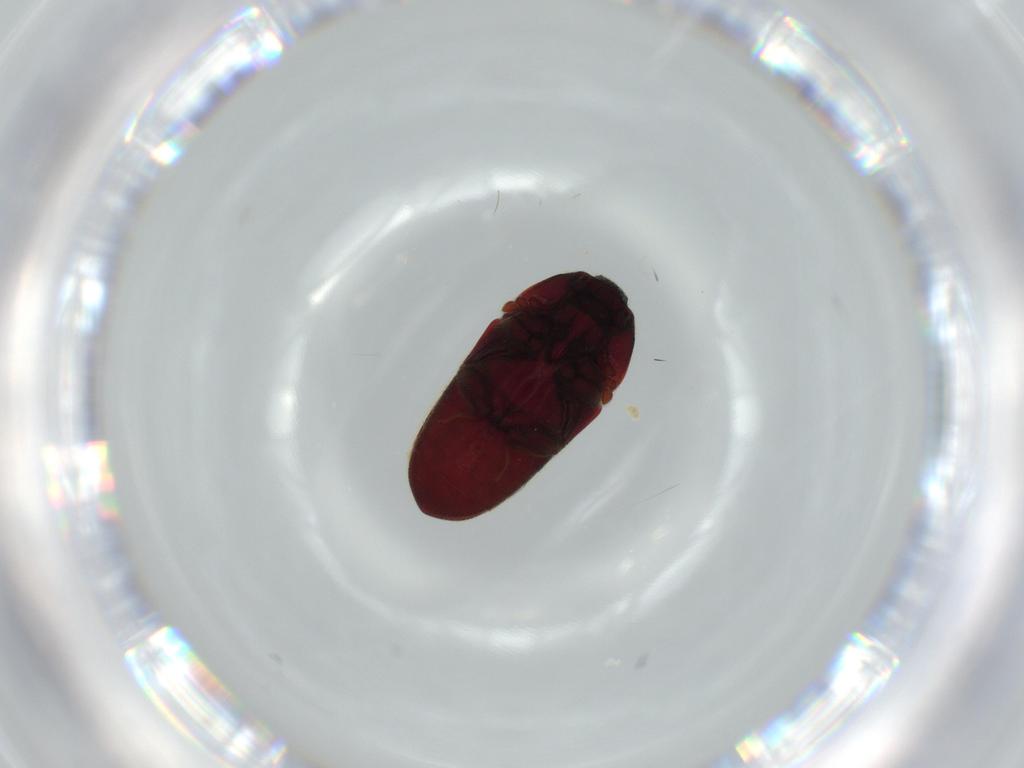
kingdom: Animalia
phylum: Arthropoda
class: Insecta
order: Coleoptera
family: Throscidae
